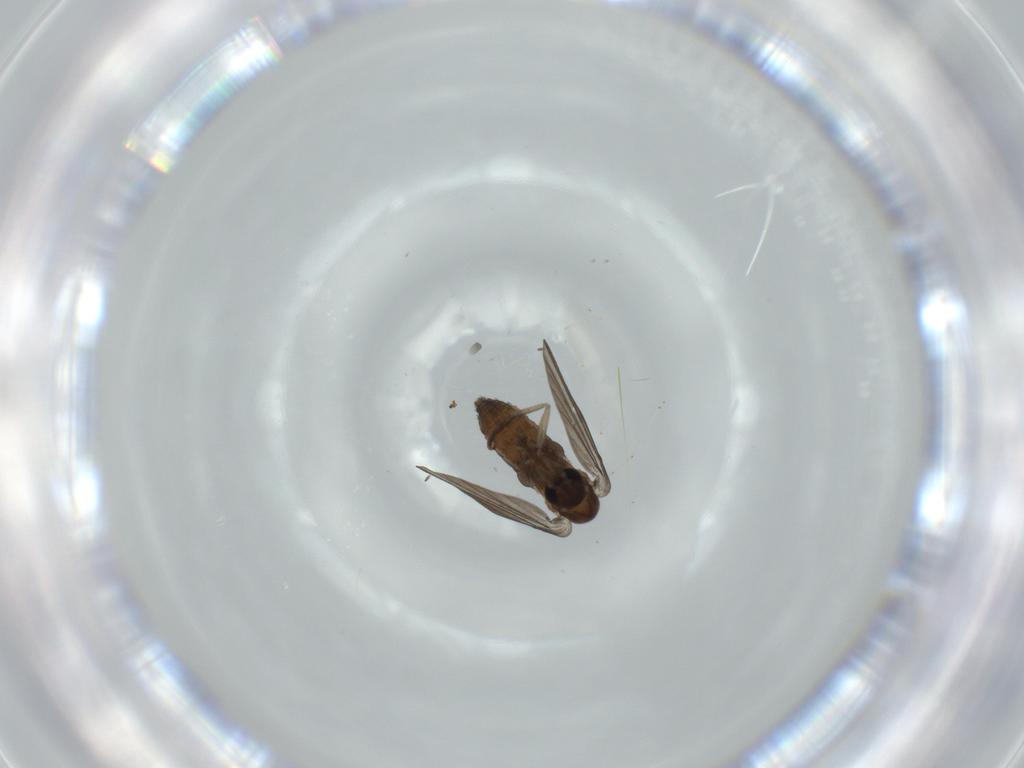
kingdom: Animalia
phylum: Arthropoda
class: Insecta
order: Diptera
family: Psychodidae
